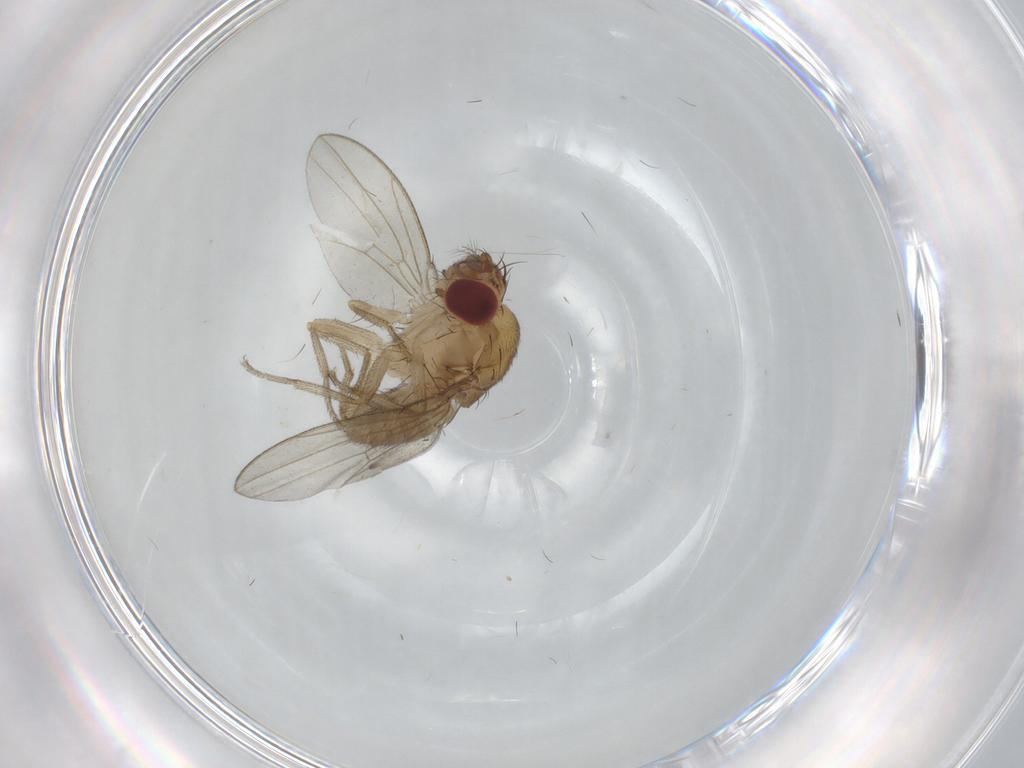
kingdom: Animalia
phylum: Arthropoda
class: Insecta
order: Diptera
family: Drosophilidae
